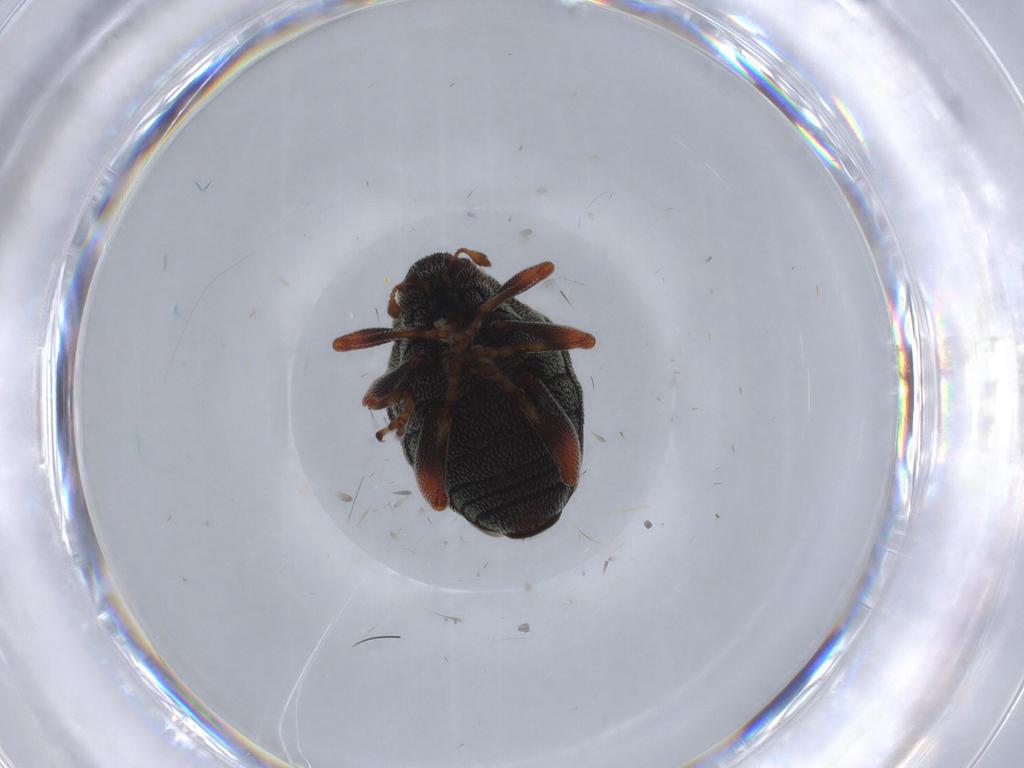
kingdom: Animalia
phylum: Arthropoda
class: Insecta
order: Coleoptera
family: Curculionidae
